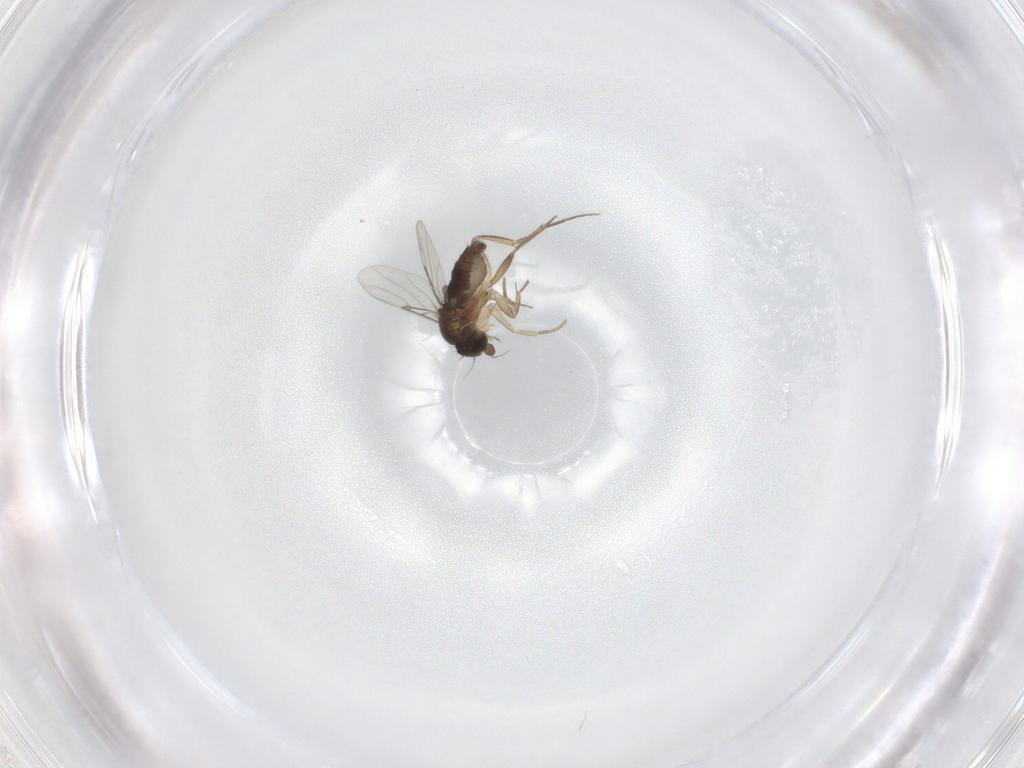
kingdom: Animalia
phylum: Arthropoda
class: Insecta
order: Diptera
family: Phoridae
